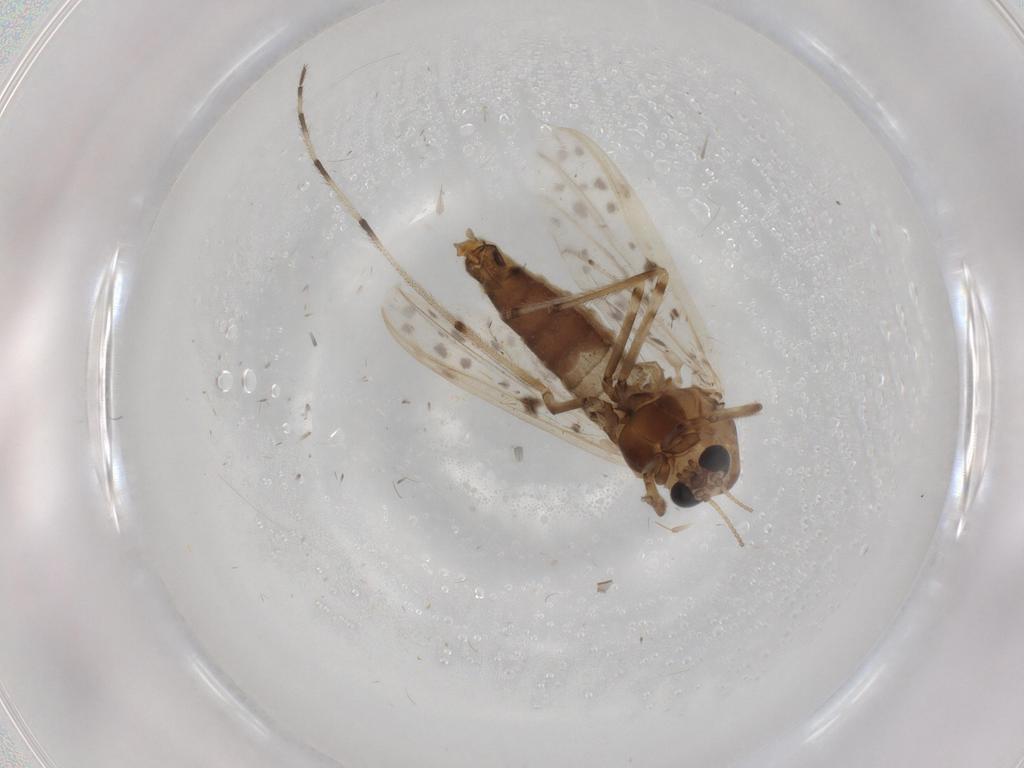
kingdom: Animalia
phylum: Arthropoda
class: Insecta
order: Diptera
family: Chironomidae
